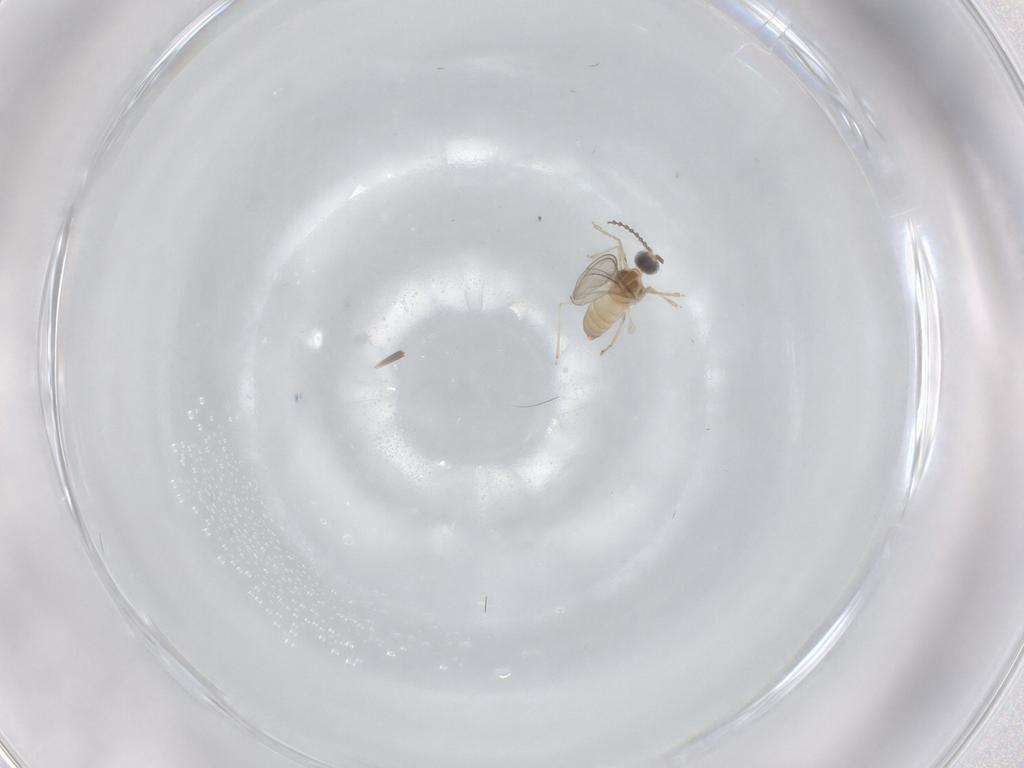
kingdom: Animalia
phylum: Arthropoda
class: Insecta
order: Diptera
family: Cecidomyiidae
